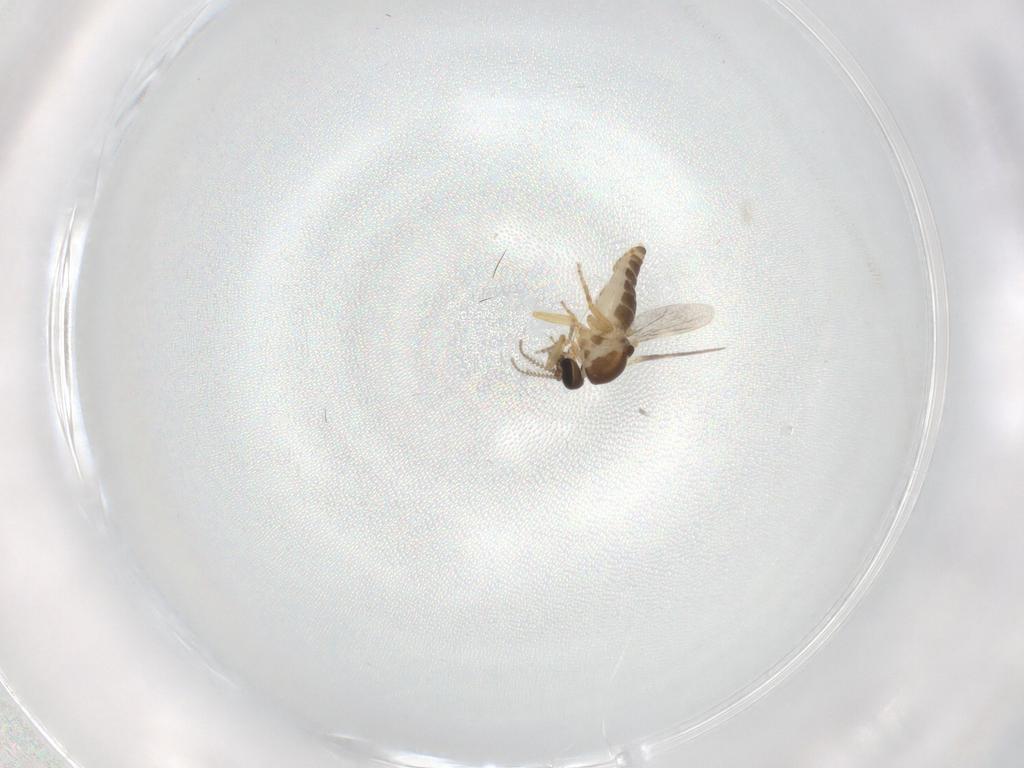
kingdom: Animalia
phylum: Arthropoda
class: Insecta
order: Diptera
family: Ceratopogonidae
